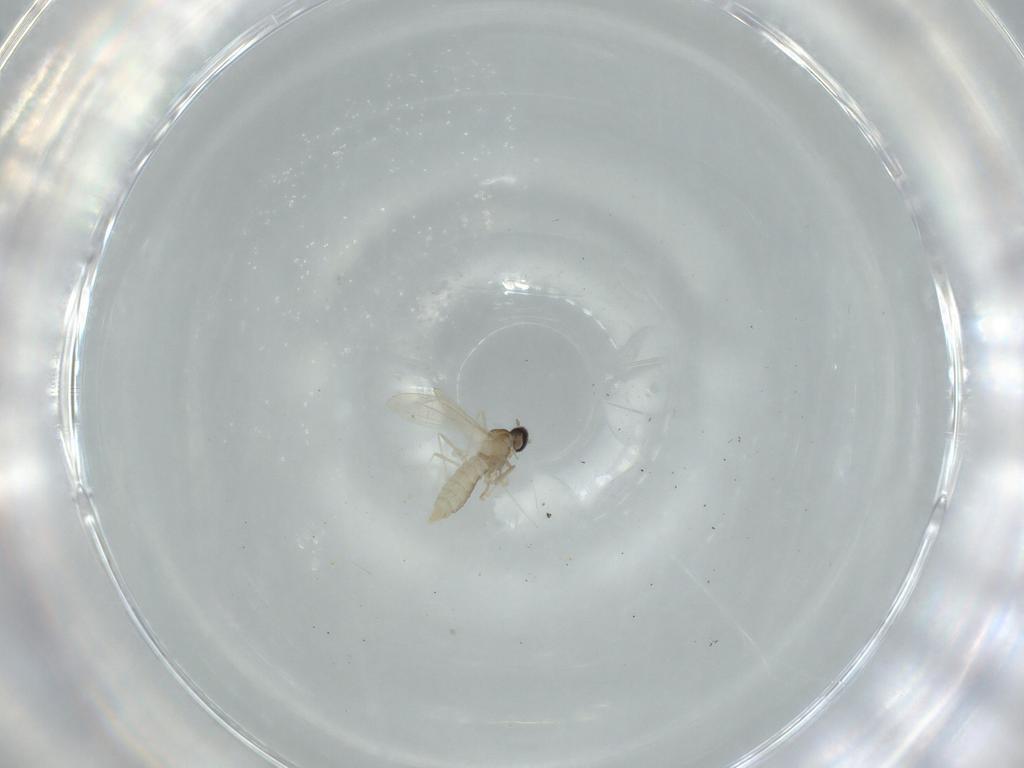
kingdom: Animalia
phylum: Arthropoda
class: Insecta
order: Diptera
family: Cecidomyiidae
